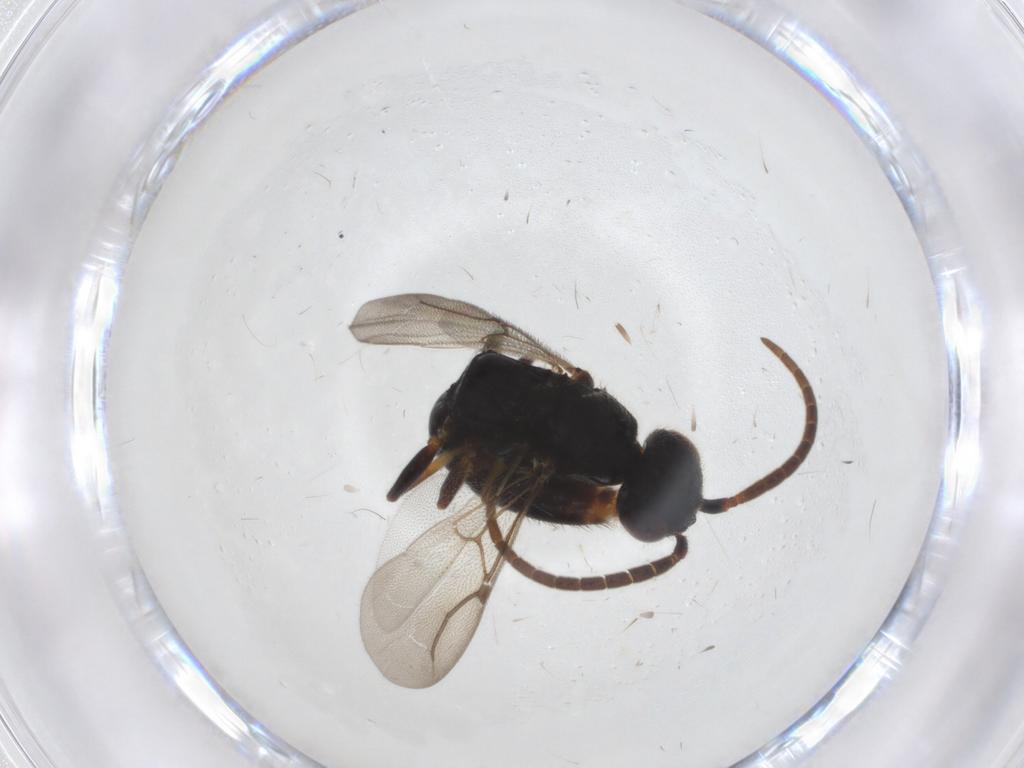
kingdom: Animalia
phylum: Arthropoda
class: Insecta
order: Hymenoptera
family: Bethylidae
